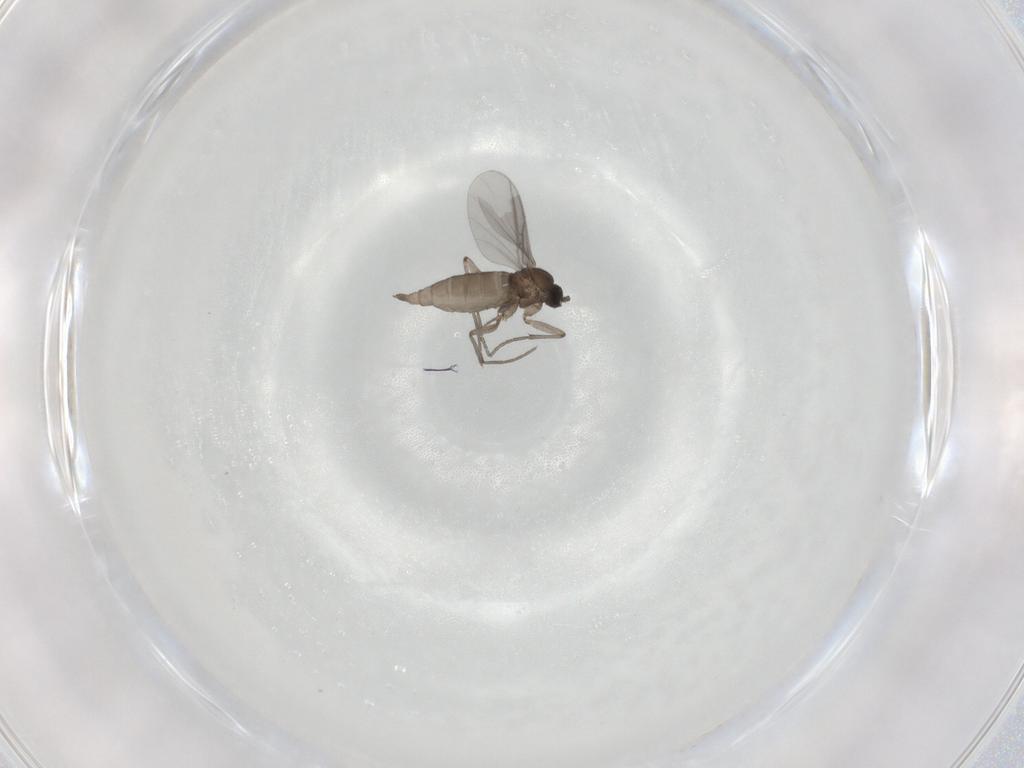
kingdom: Animalia
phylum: Arthropoda
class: Insecta
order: Diptera
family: Sciaridae
